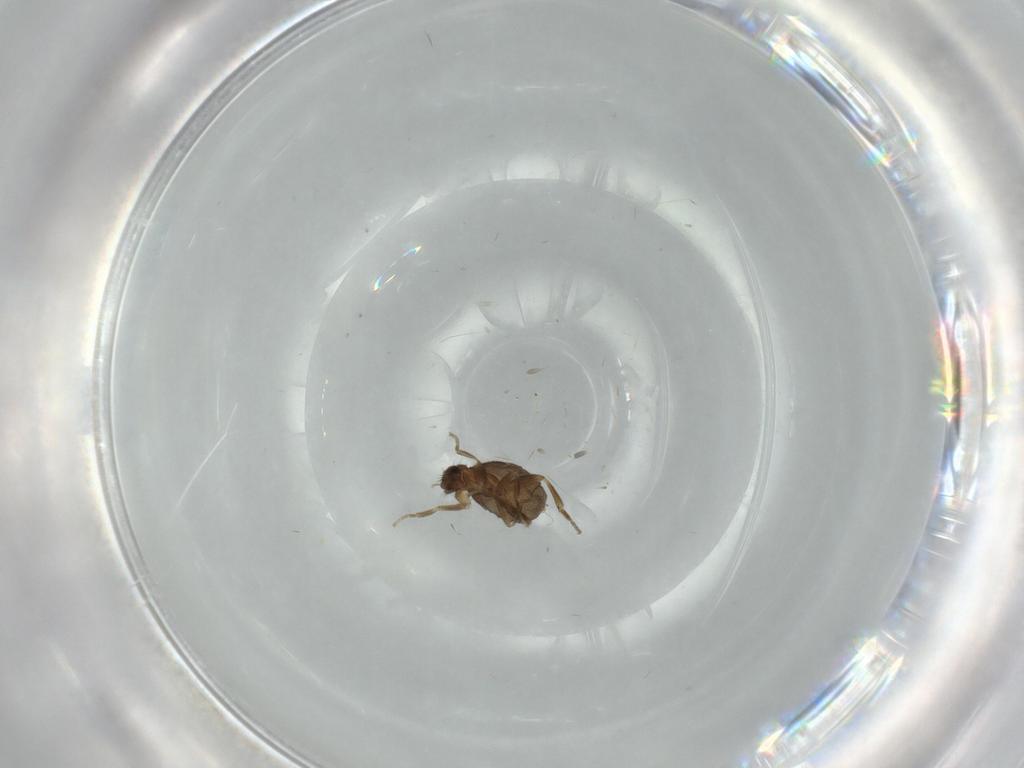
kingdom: Animalia
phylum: Arthropoda
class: Insecta
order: Diptera
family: Phoridae
